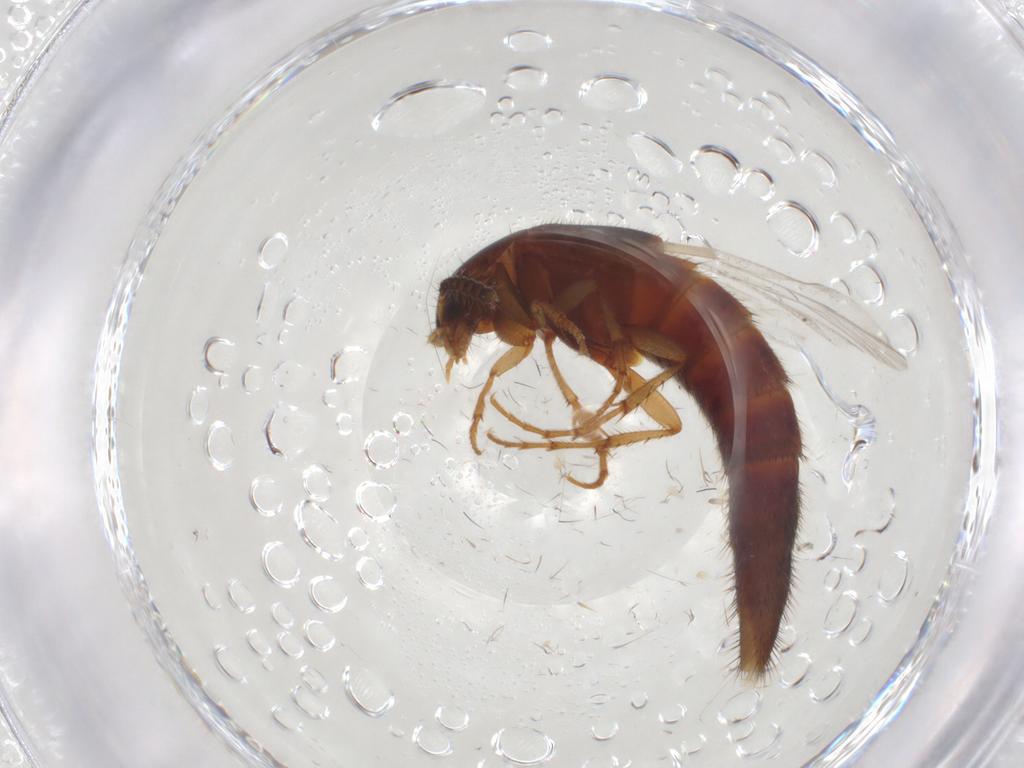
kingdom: Animalia
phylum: Arthropoda
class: Insecta
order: Coleoptera
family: Staphylinidae
